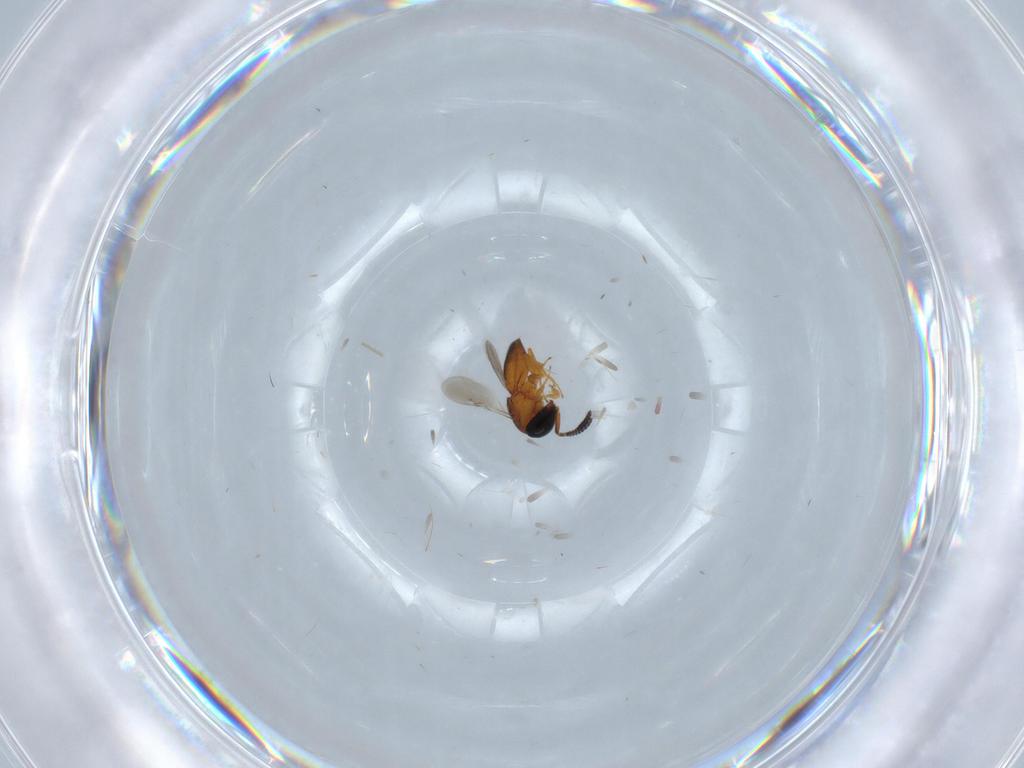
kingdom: Animalia
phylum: Arthropoda
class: Insecta
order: Hymenoptera
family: Scelionidae
